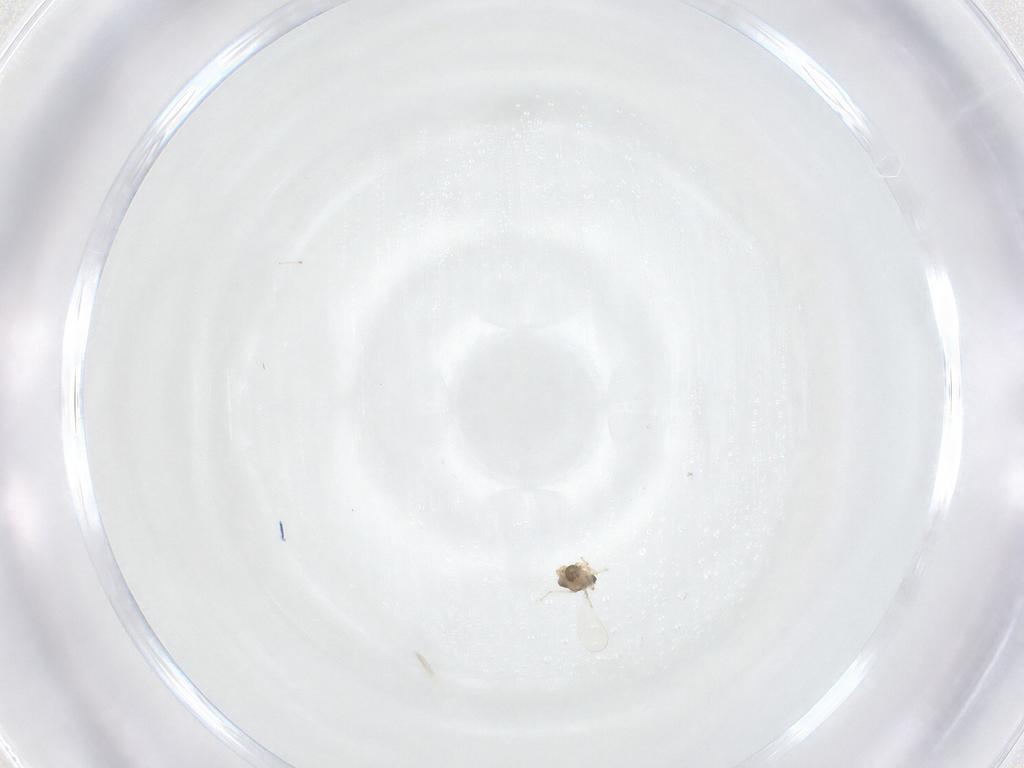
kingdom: Animalia
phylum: Arthropoda
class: Insecta
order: Diptera
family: Chironomidae
